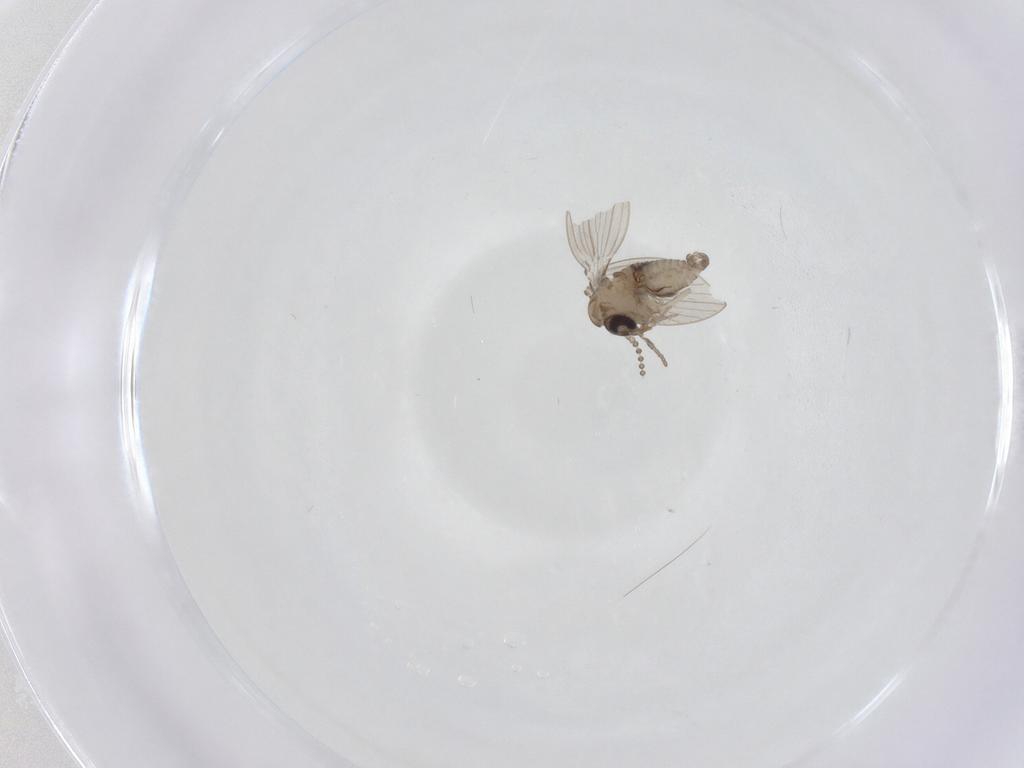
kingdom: Animalia
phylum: Arthropoda
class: Insecta
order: Diptera
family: Psychodidae
